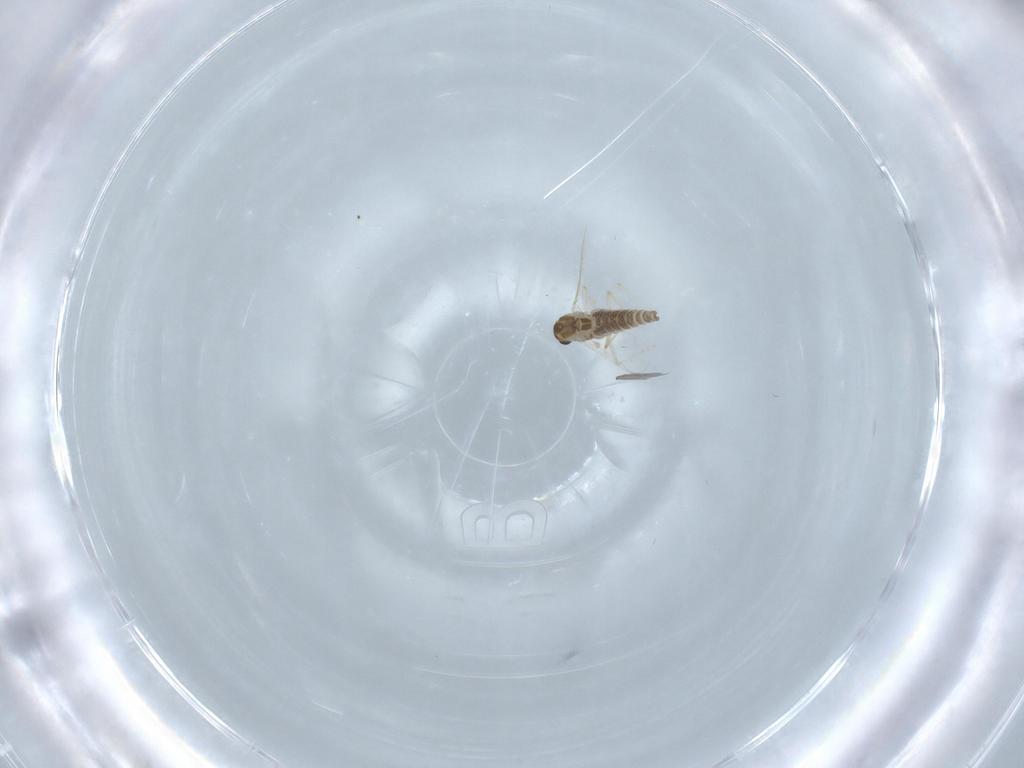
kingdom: Animalia
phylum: Arthropoda
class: Insecta
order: Diptera
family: Chironomidae
